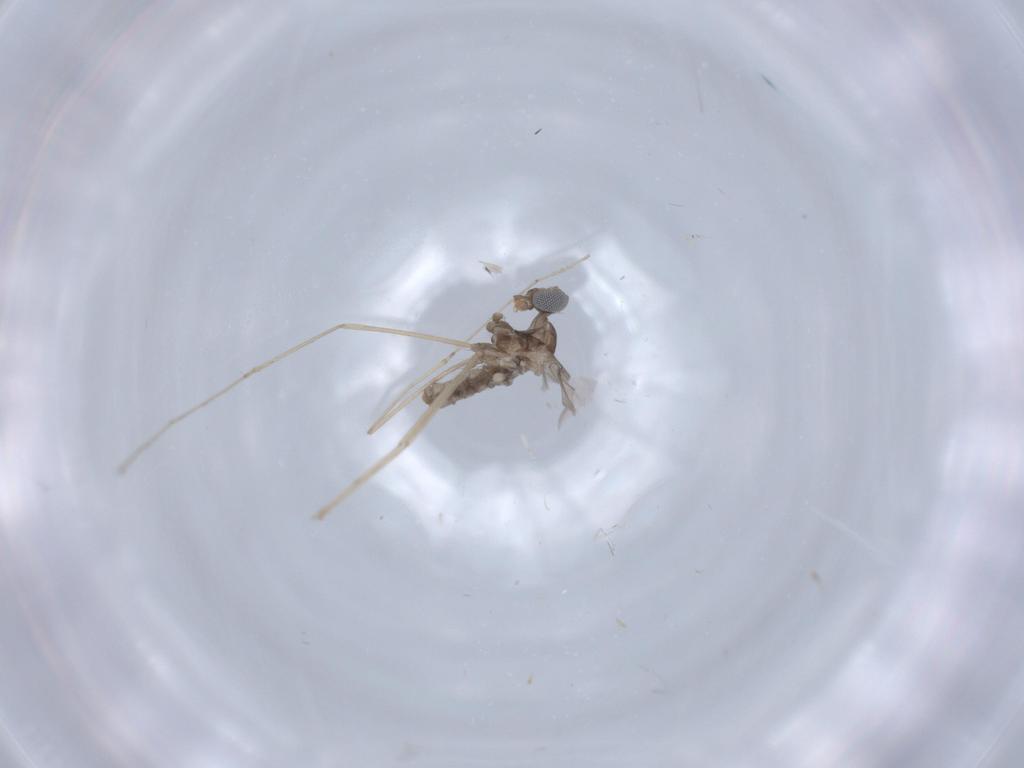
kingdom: Animalia
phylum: Arthropoda
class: Insecta
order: Diptera
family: Cecidomyiidae
